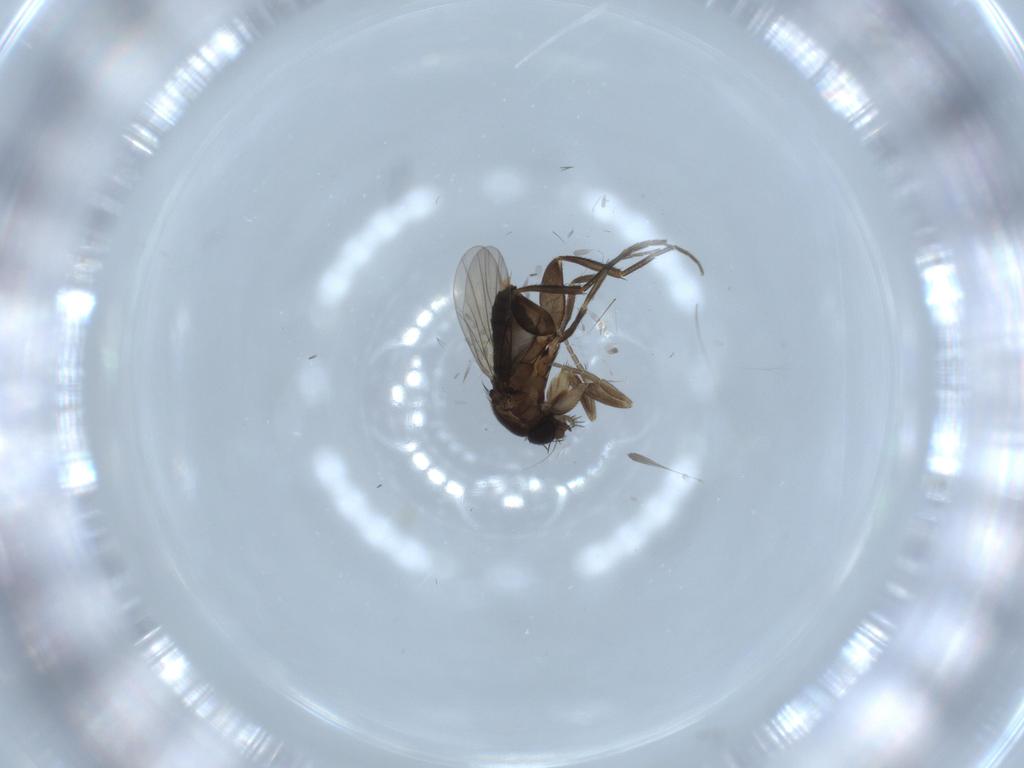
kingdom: Animalia
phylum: Arthropoda
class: Insecta
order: Diptera
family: Phoridae
